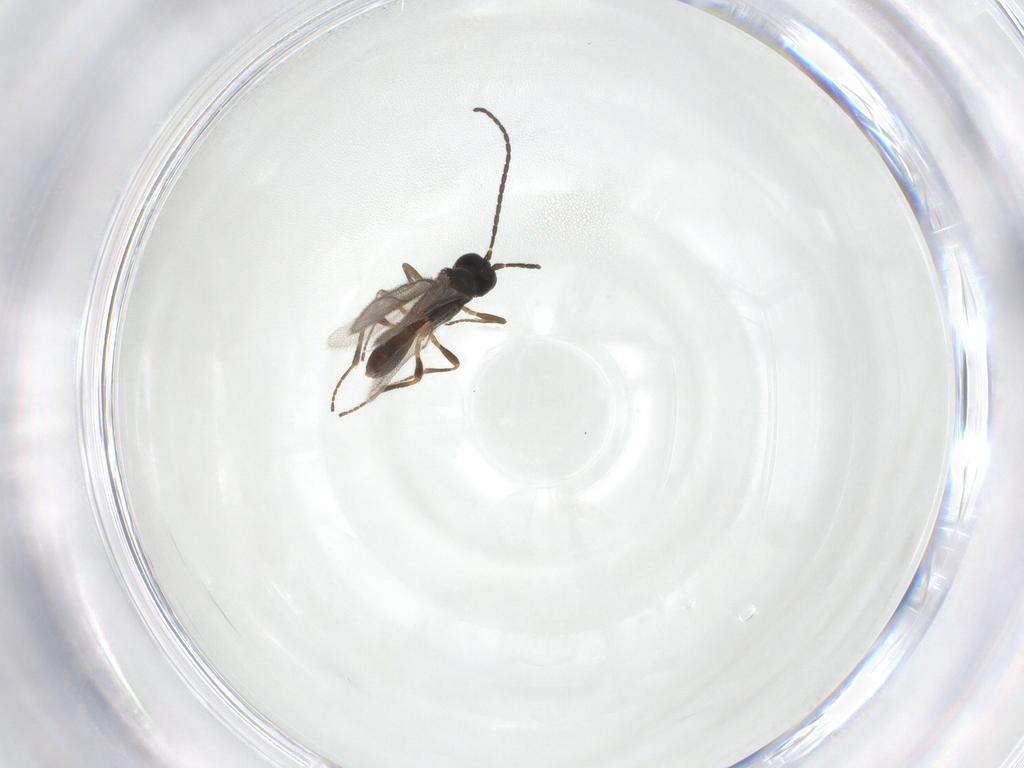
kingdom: Animalia
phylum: Arthropoda
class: Insecta
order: Hymenoptera
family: Braconidae
